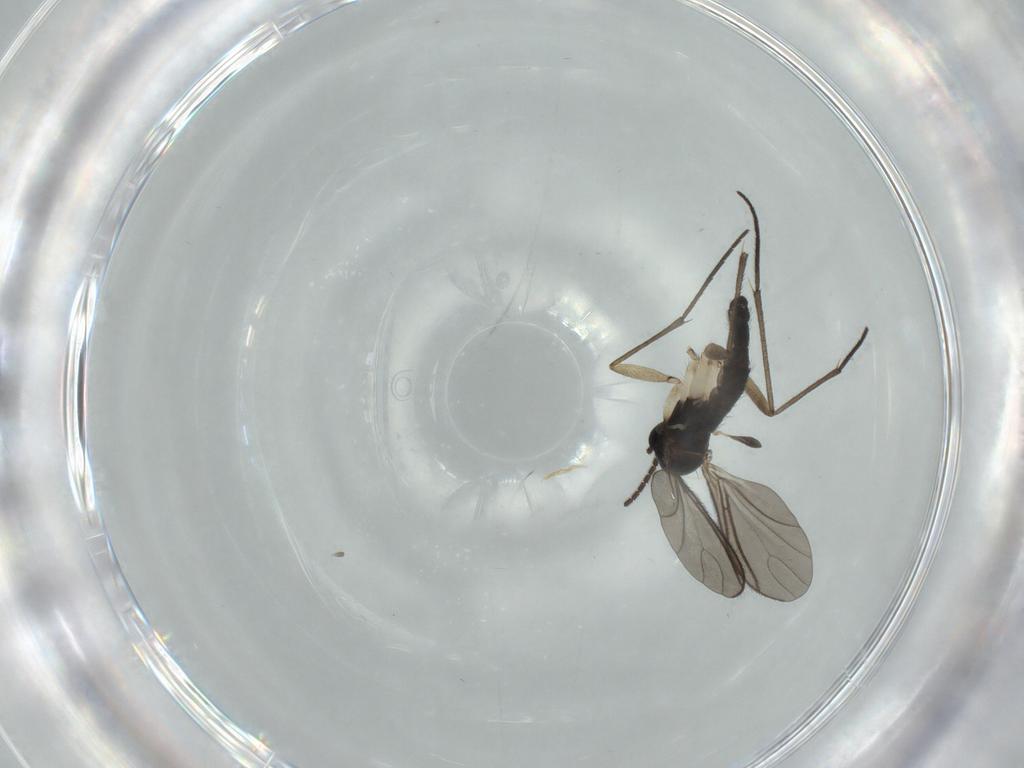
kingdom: Animalia
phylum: Arthropoda
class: Insecta
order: Diptera
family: Sciaridae
